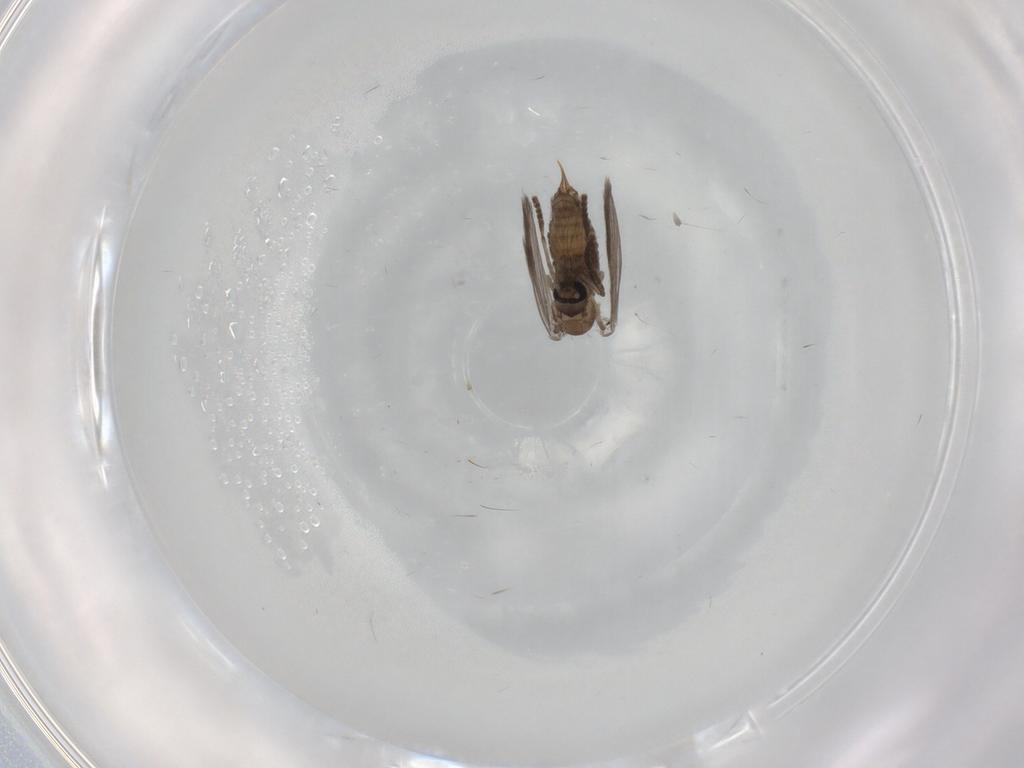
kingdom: Animalia
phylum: Arthropoda
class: Insecta
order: Diptera
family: Psychodidae
